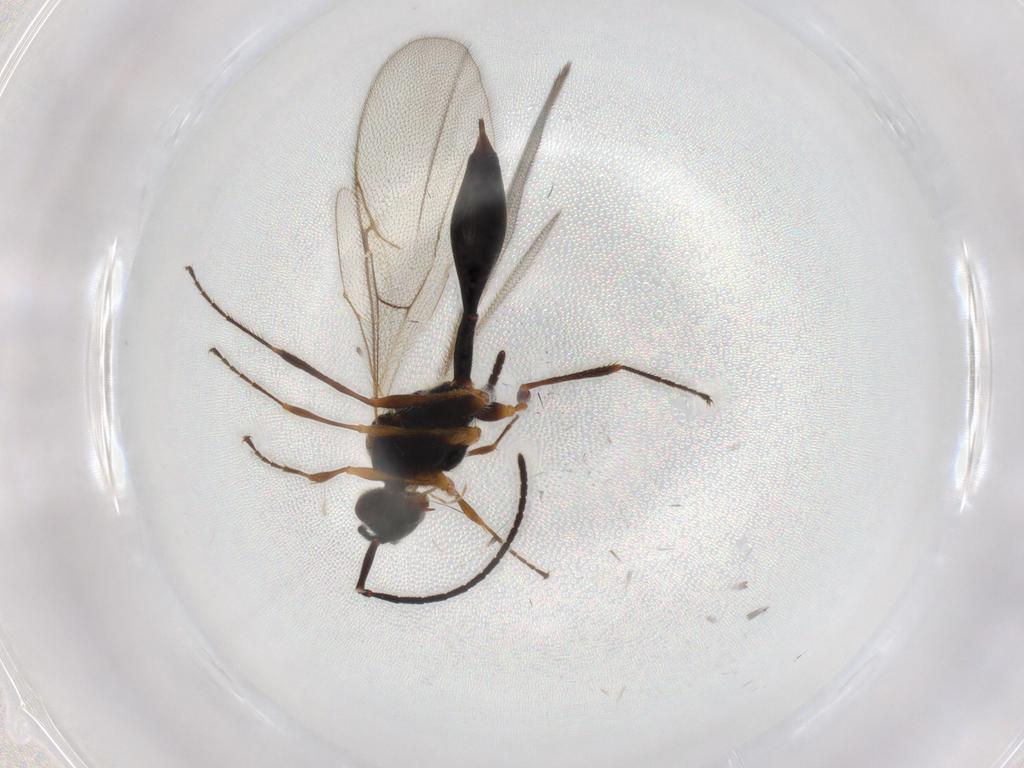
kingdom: Animalia
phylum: Arthropoda
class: Insecta
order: Hymenoptera
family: Diapriidae
